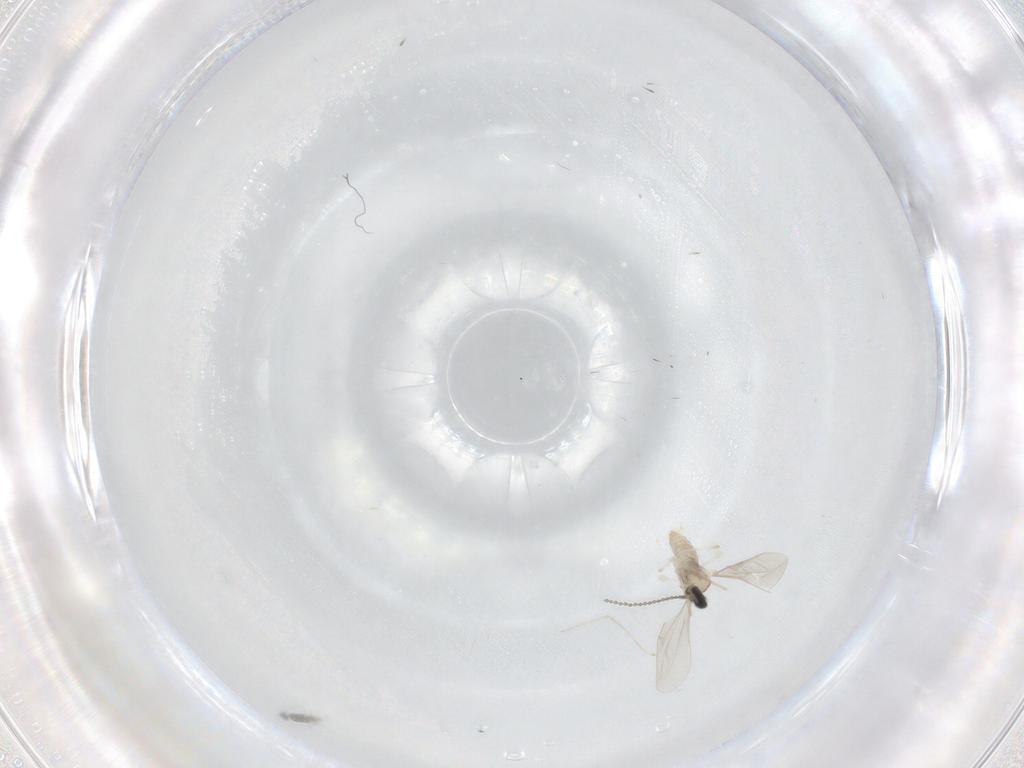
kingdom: Animalia
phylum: Arthropoda
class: Insecta
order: Diptera
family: Cecidomyiidae
